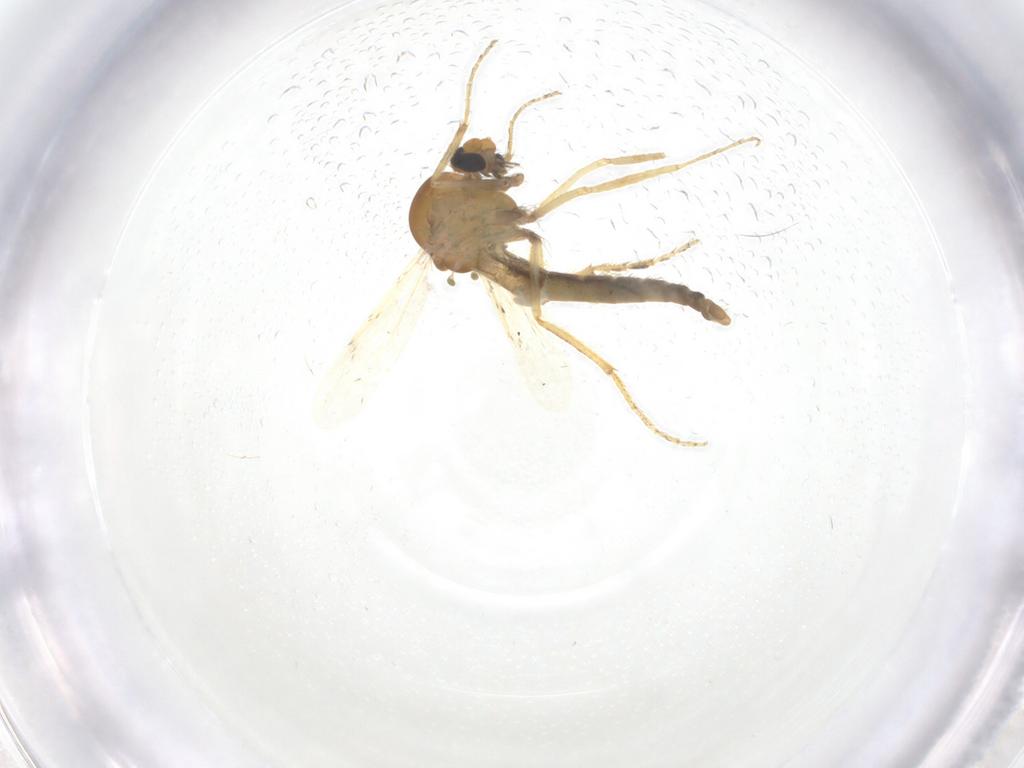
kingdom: Animalia
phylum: Arthropoda
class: Insecta
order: Diptera
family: Ceratopogonidae
